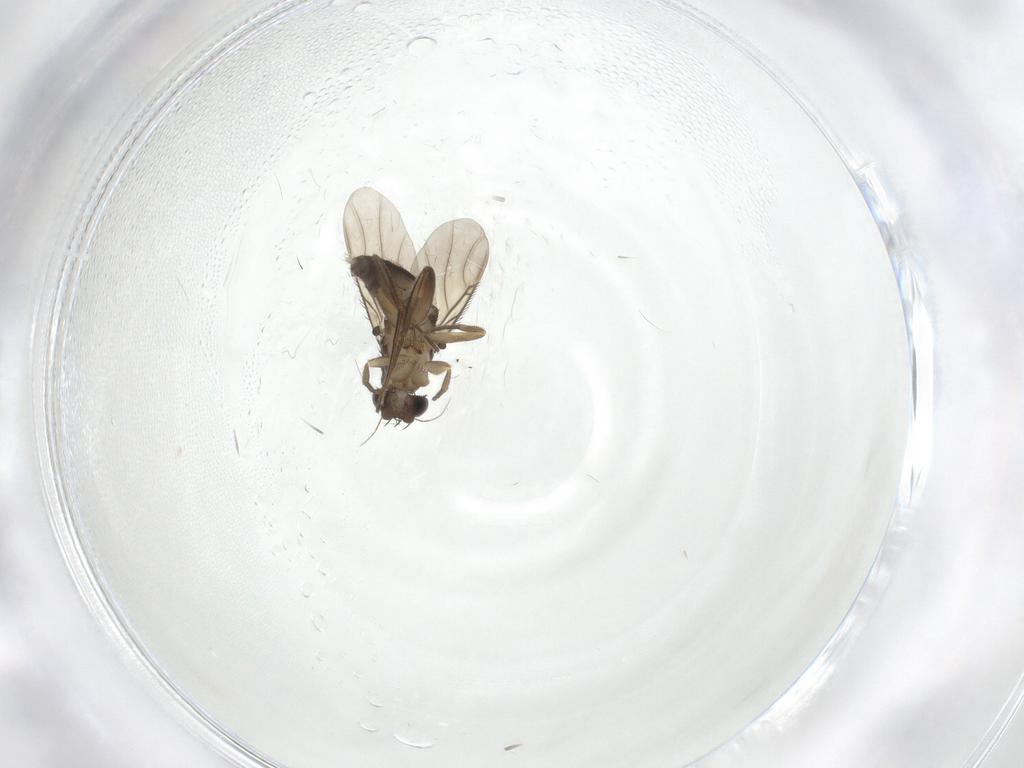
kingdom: Animalia
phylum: Arthropoda
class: Insecta
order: Diptera
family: Phoridae
